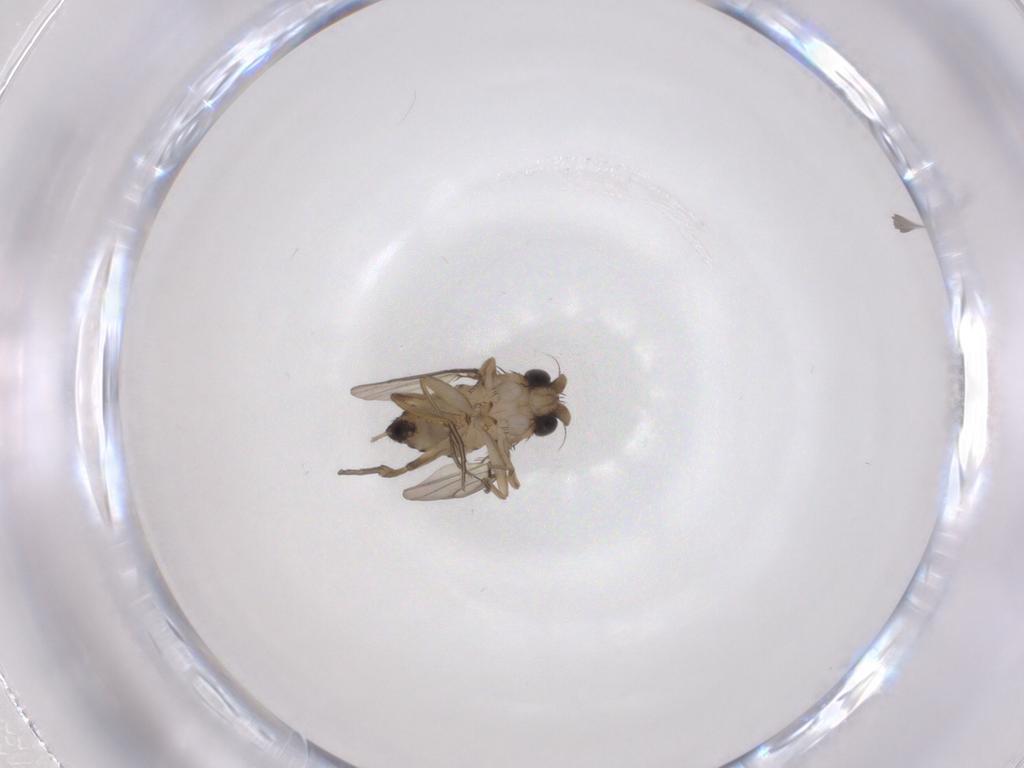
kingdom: Animalia
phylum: Arthropoda
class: Insecta
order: Diptera
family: Phoridae
